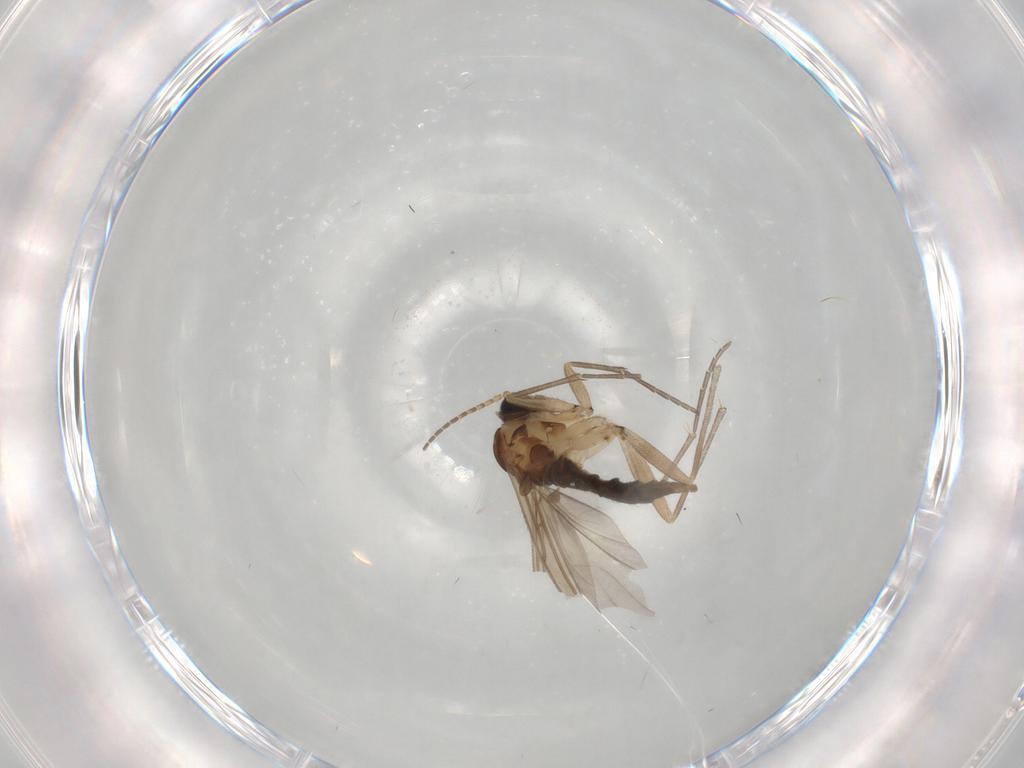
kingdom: Animalia
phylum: Arthropoda
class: Insecta
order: Diptera
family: Sciaridae
